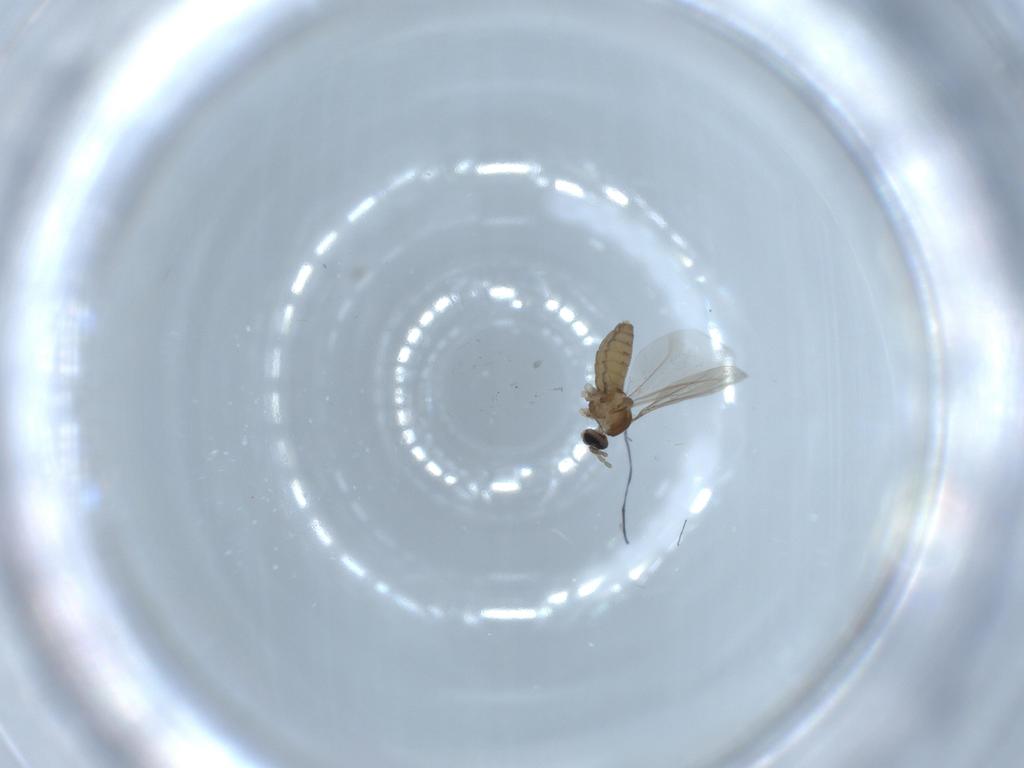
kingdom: Animalia
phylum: Arthropoda
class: Insecta
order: Diptera
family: Cecidomyiidae
